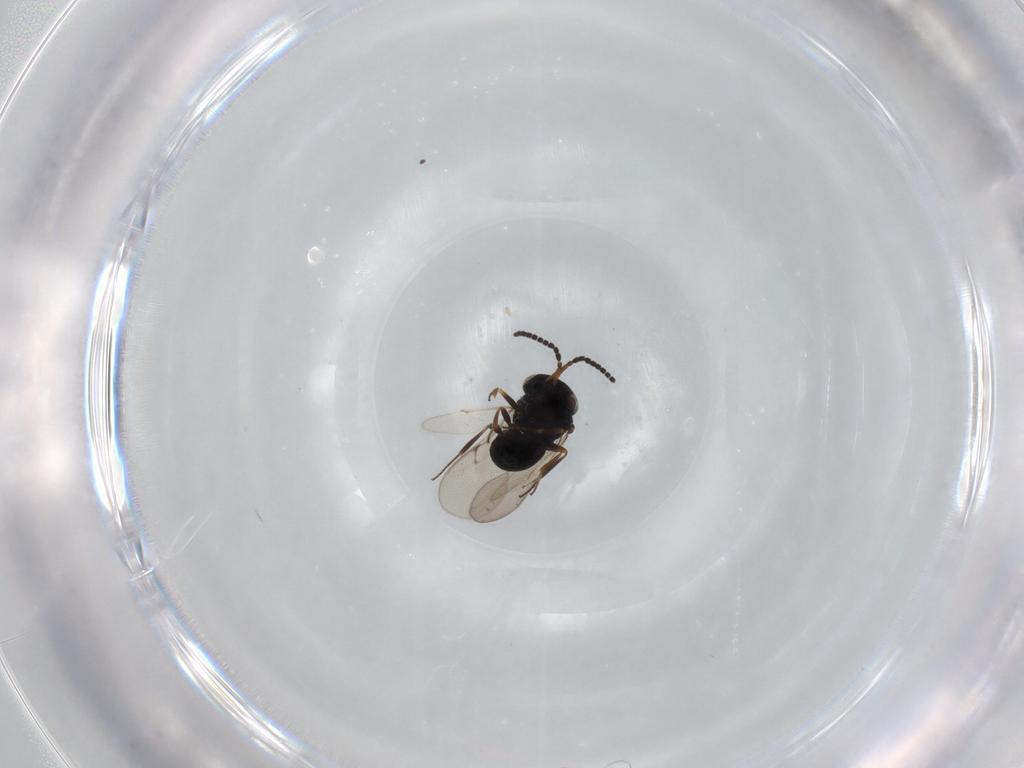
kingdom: Animalia
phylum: Arthropoda
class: Insecta
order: Hymenoptera
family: Scelionidae
